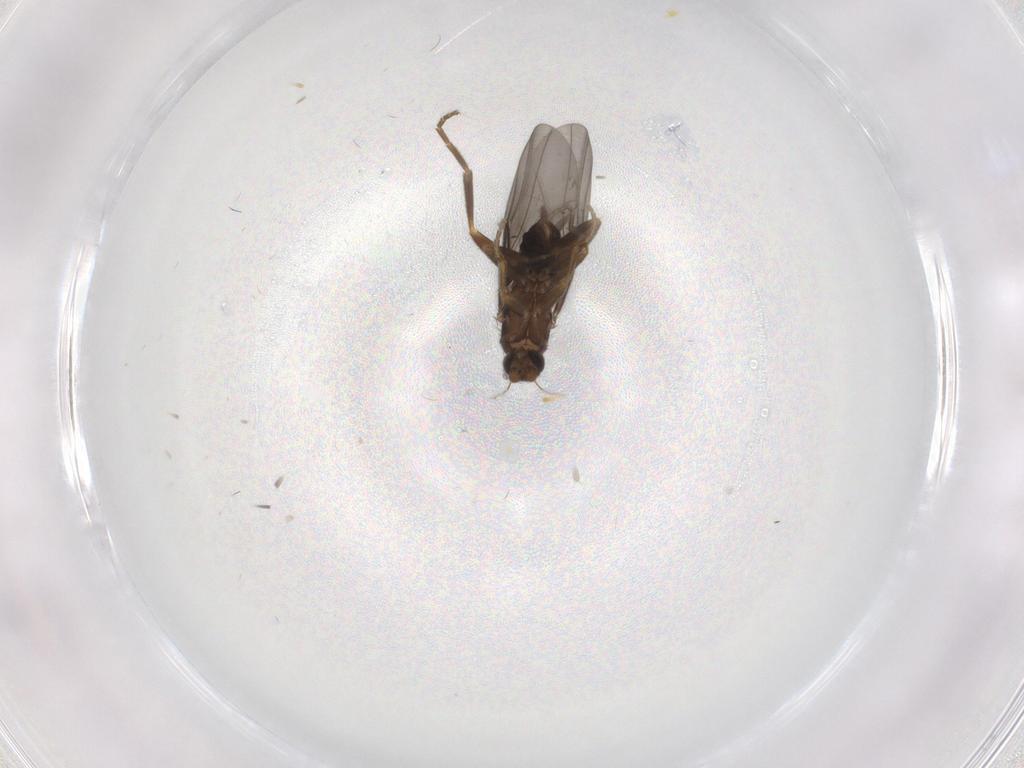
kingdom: Animalia
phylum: Arthropoda
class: Insecta
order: Diptera
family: Phoridae
